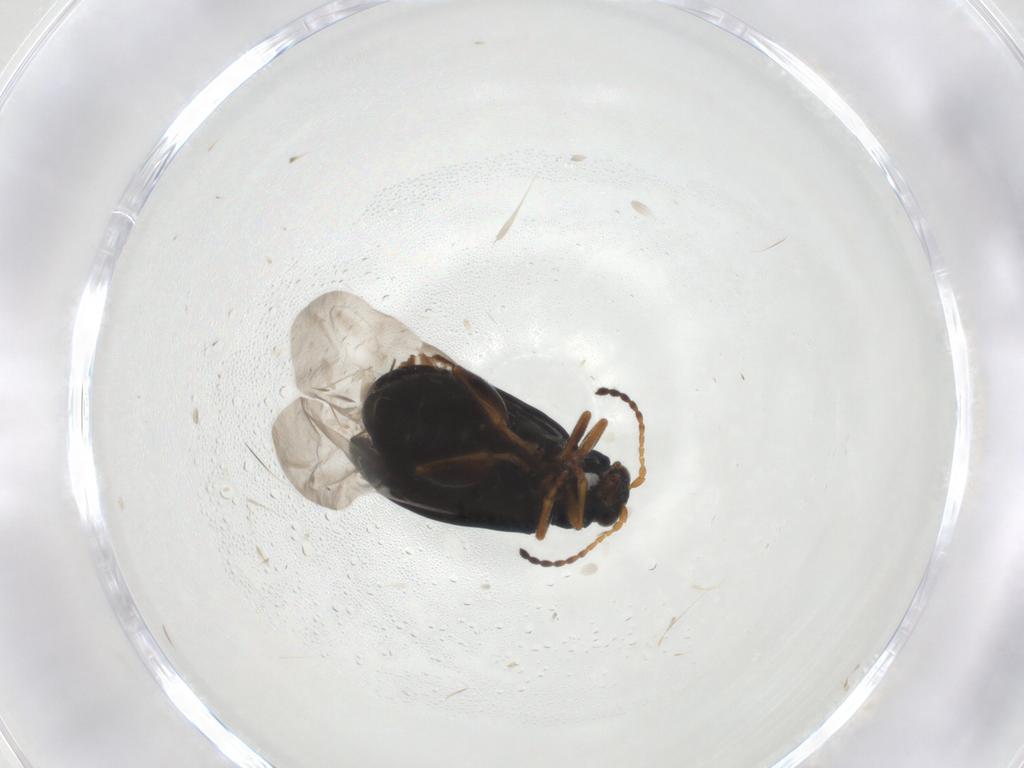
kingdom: Animalia
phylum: Arthropoda
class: Insecta
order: Coleoptera
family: Chrysomelidae
